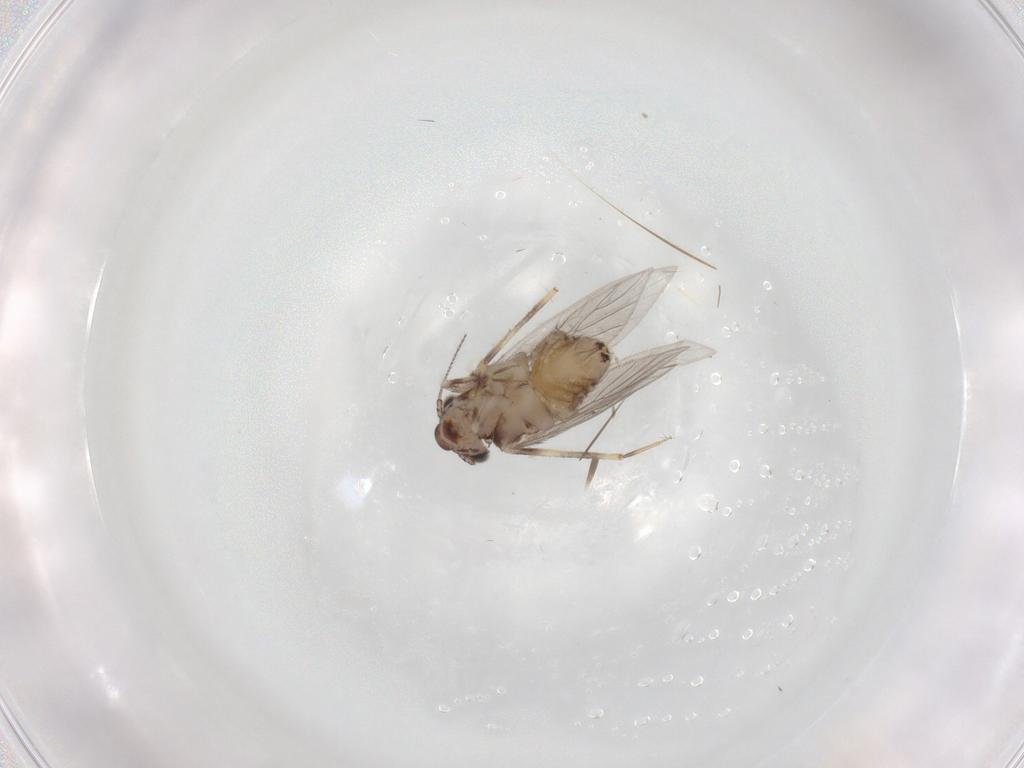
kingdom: Animalia
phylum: Arthropoda
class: Insecta
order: Psocodea
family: Lepidopsocidae
